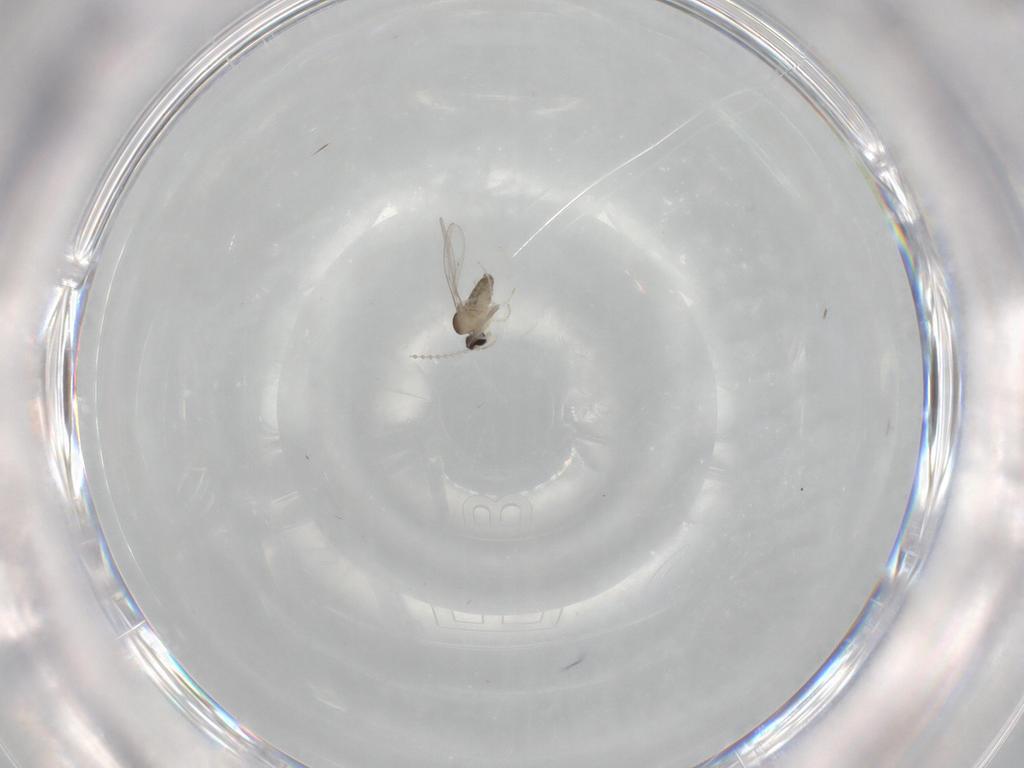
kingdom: Animalia
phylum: Arthropoda
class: Insecta
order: Diptera
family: Cecidomyiidae
